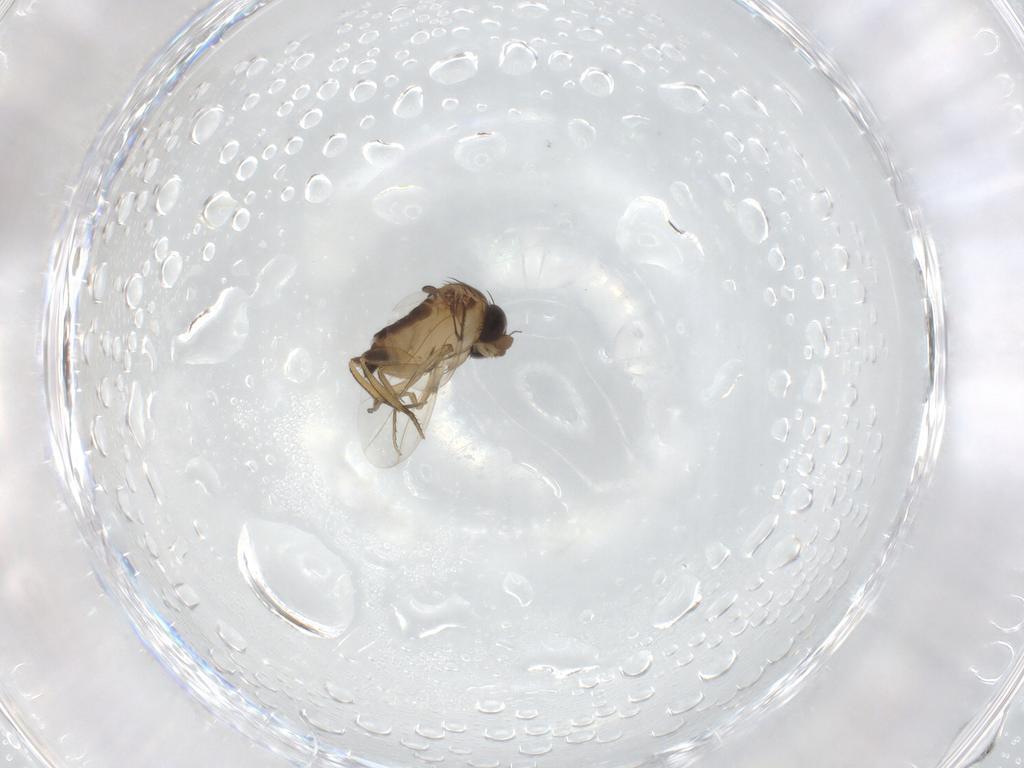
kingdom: Animalia
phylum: Arthropoda
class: Insecta
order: Diptera
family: Phoridae
